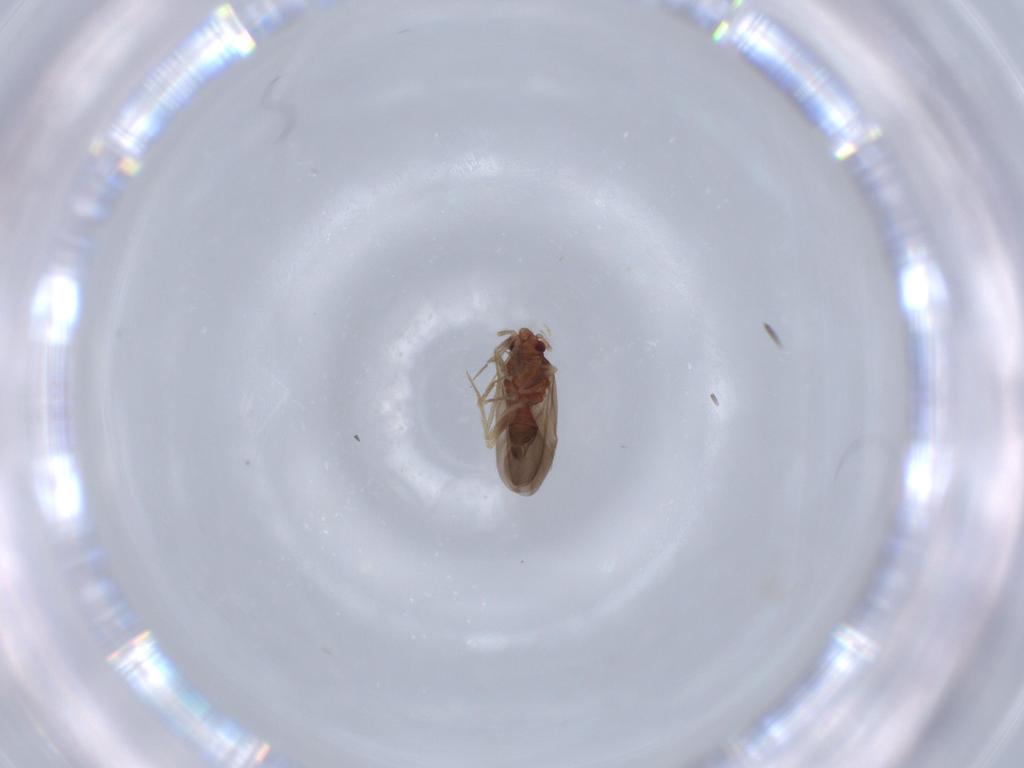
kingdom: Animalia
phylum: Arthropoda
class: Insecta
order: Hemiptera
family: Ceratocombidae
